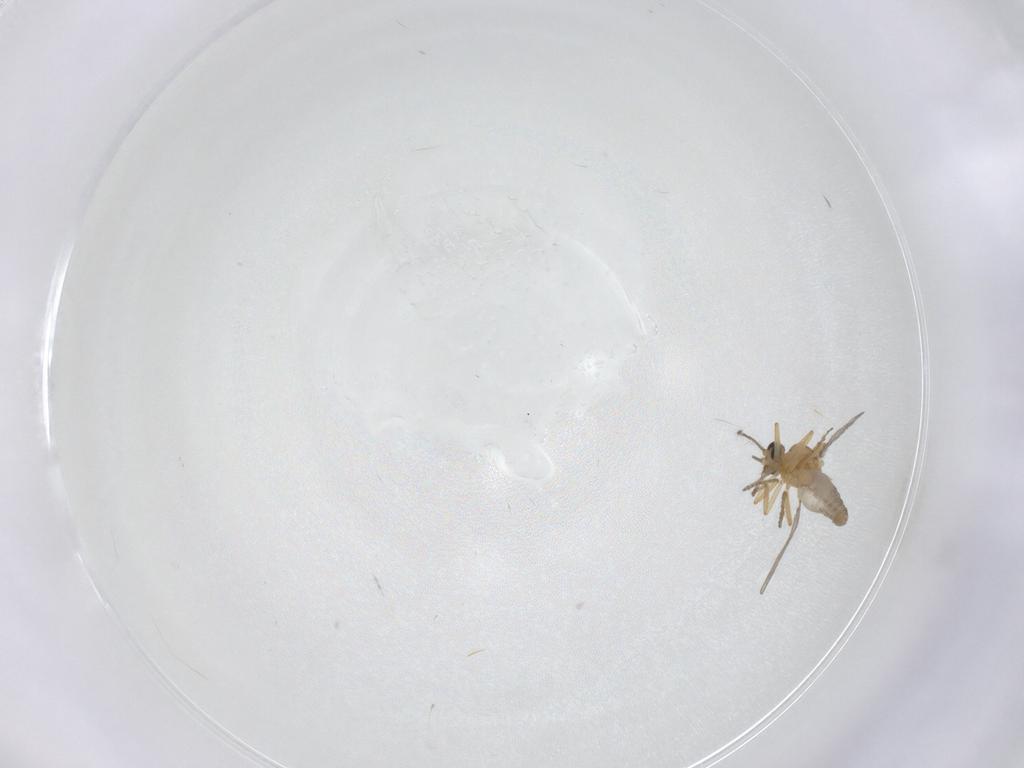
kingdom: Animalia
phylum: Arthropoda
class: Insecta
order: Diptera
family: Ceratopogonidae
